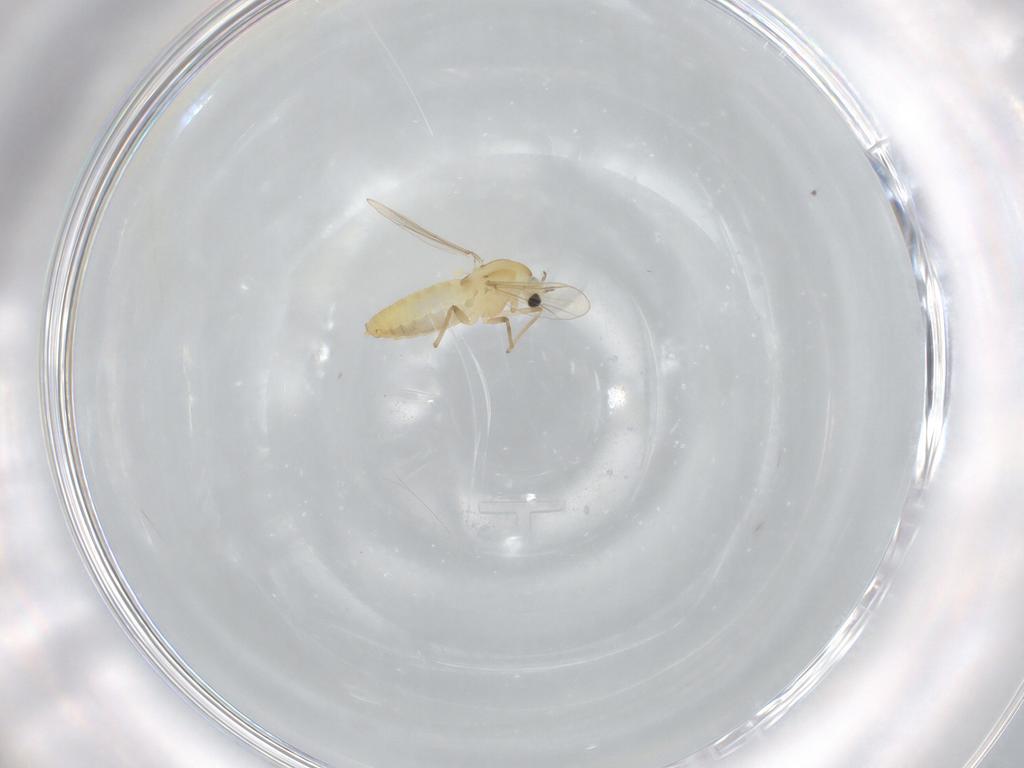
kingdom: Animalia
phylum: Arthropoda
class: Insecta
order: Diptera
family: Chironomidae
